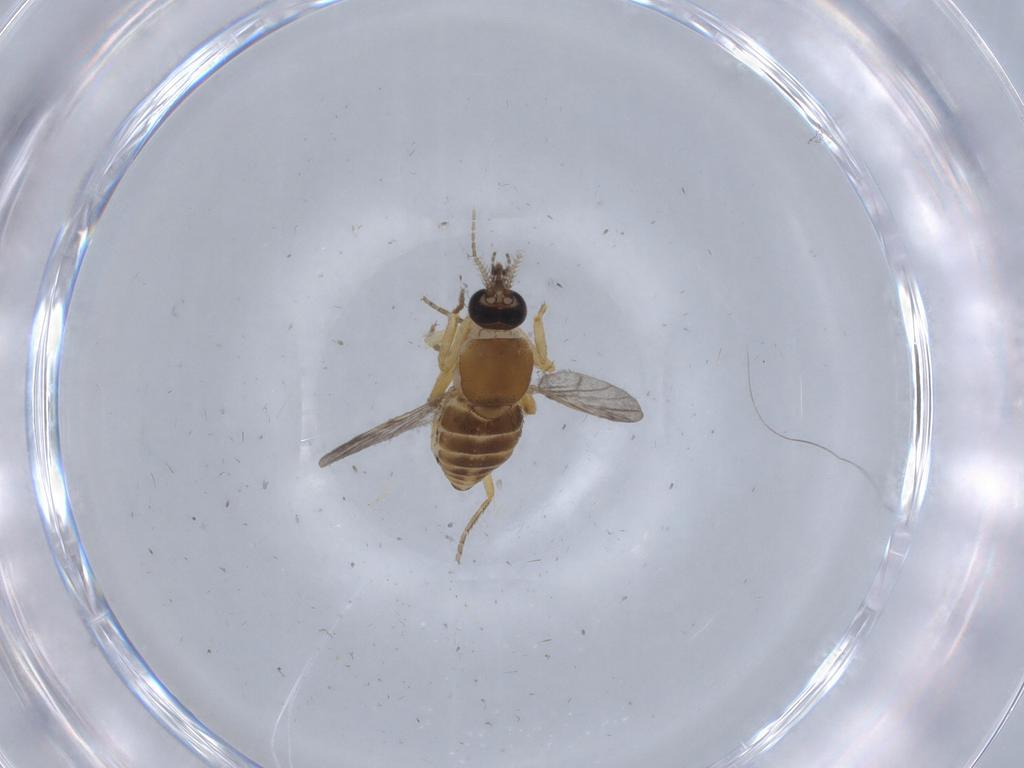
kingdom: Animalia
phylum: Arthropoda
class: Insecta
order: Diptera
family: Ceratopogonidae
